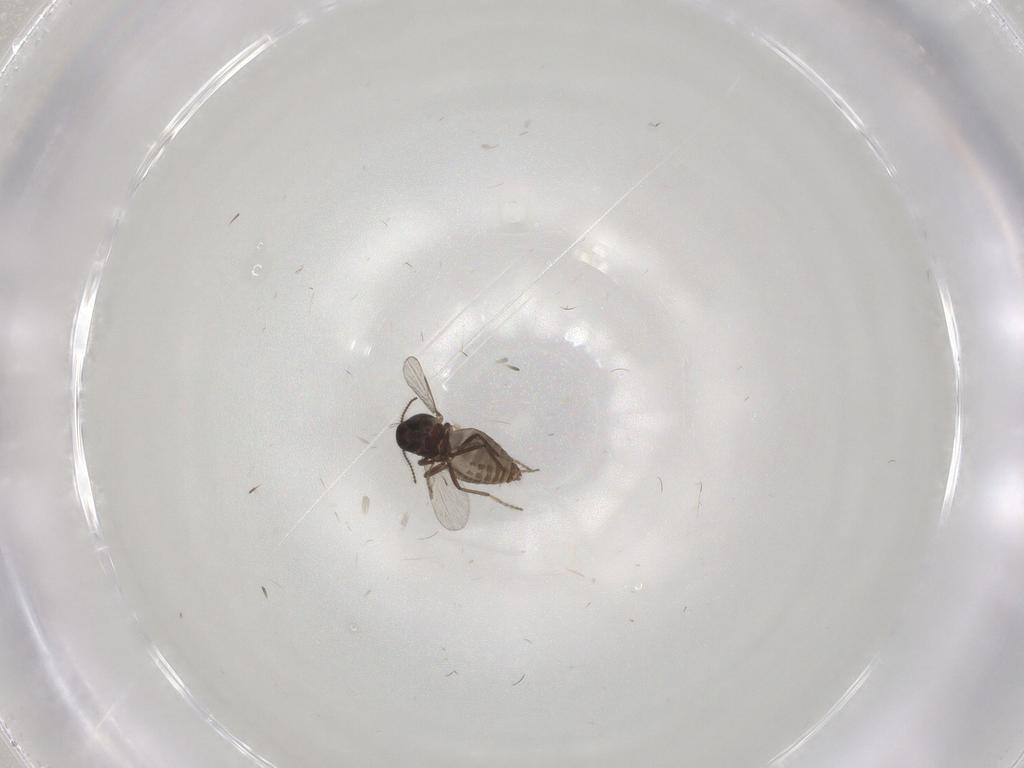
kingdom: Animalia
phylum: Arthropoda
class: Insecta
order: Diptera
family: Ceratopogonidae
